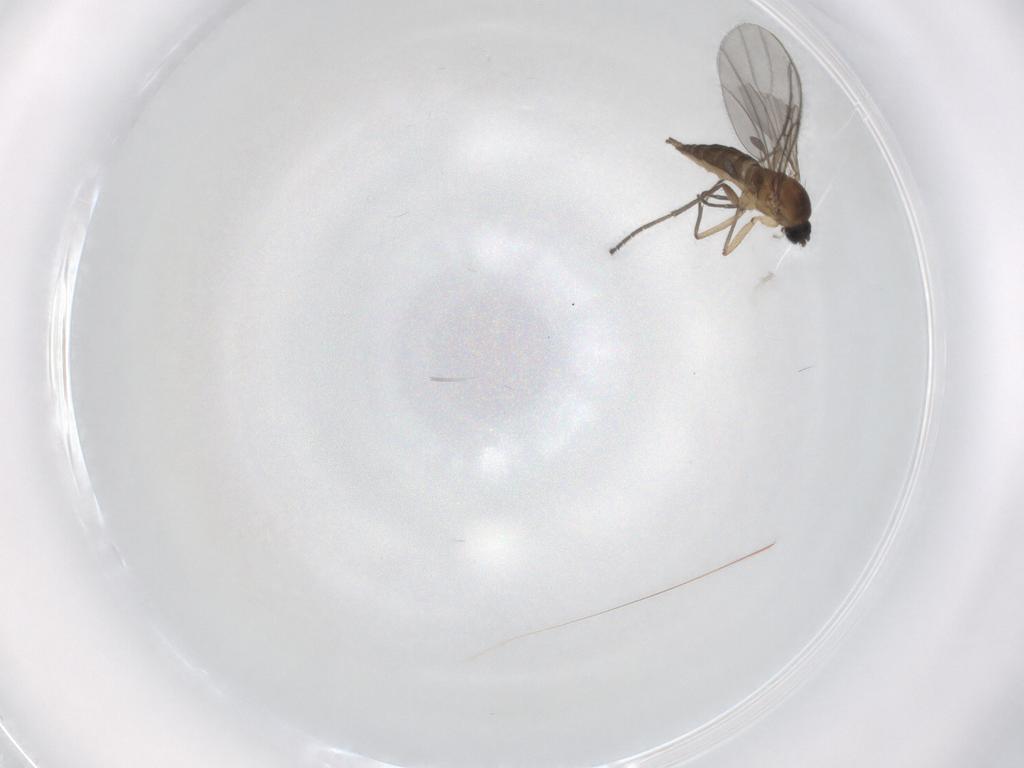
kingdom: Animalia
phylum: Arthropoda
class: Insecta
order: Diptera
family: Sciaridae
